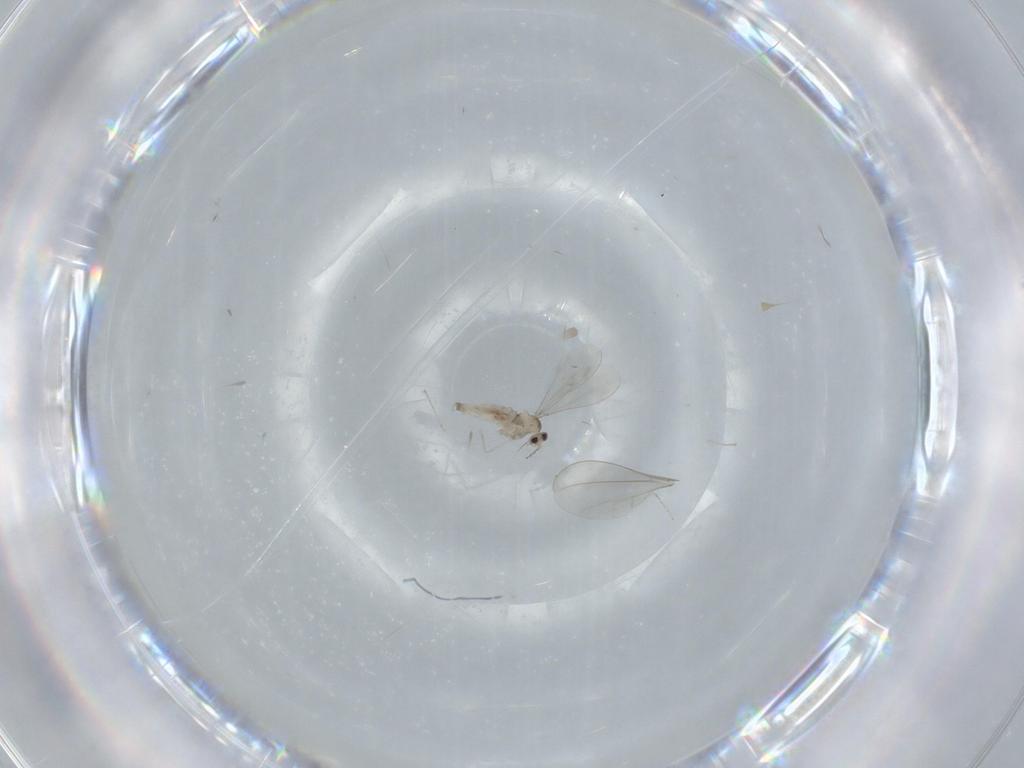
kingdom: Animalia
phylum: Arthropoda
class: Insecta
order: Diptera
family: Cecidomyiidae
